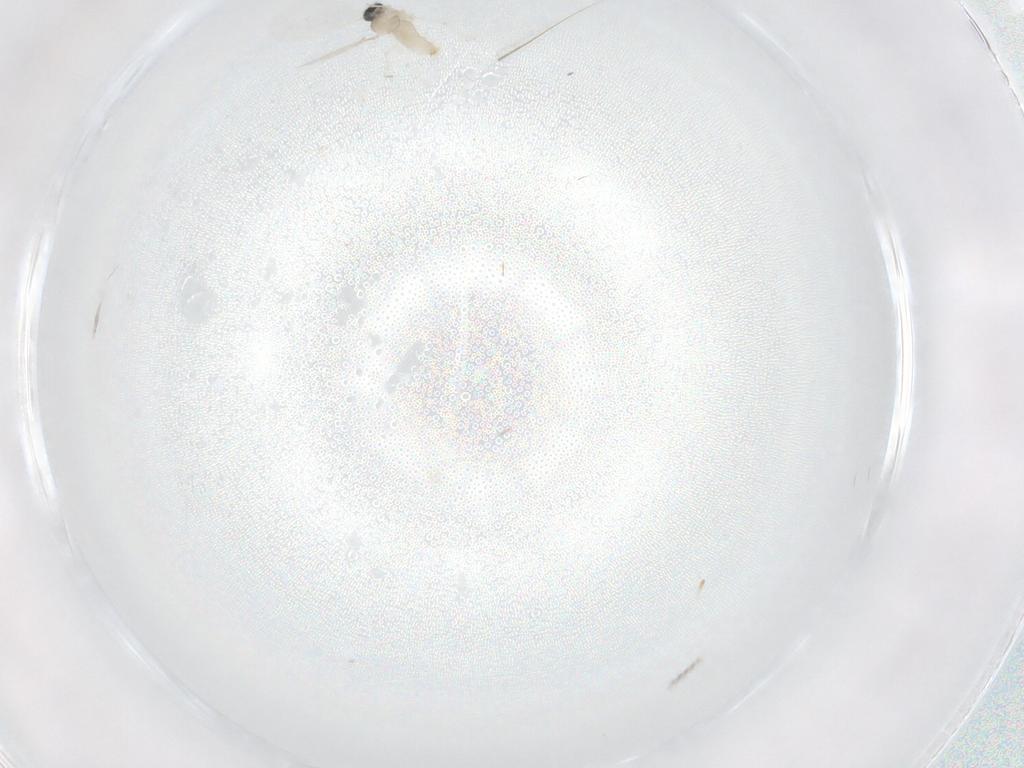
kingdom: Animalia
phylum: Arthropoda
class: Insecta
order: Diptera
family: Cecidomyiidae
